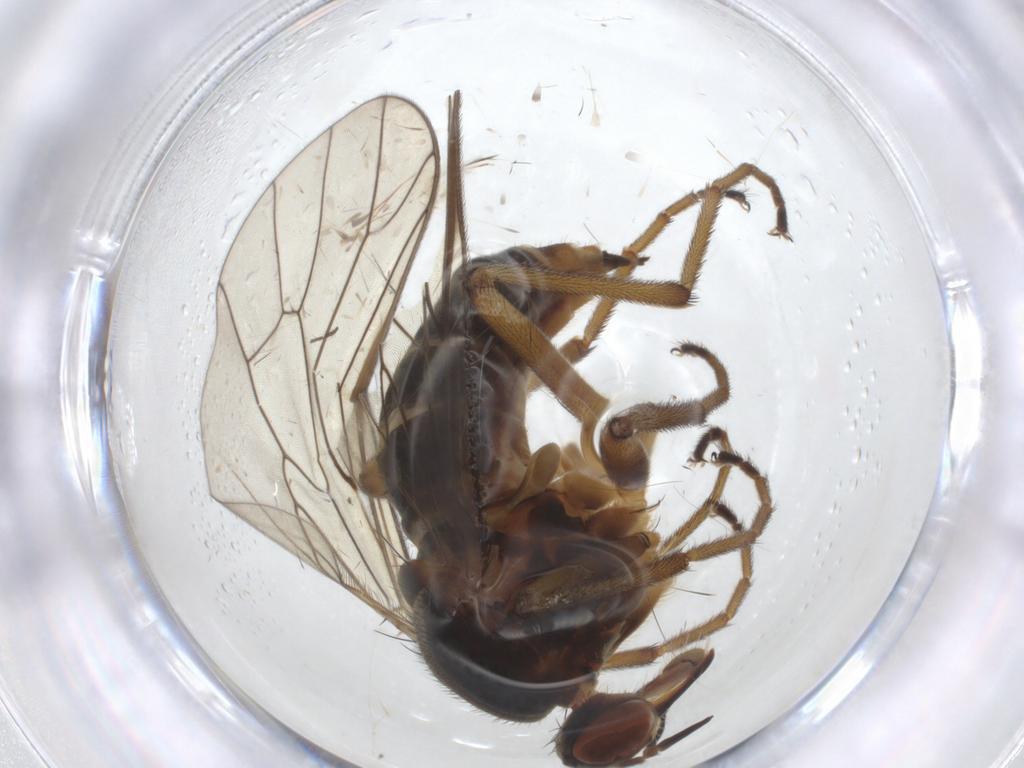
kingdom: Animalia
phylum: Arthropoda
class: Insecta
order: Diptera
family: Empididae
